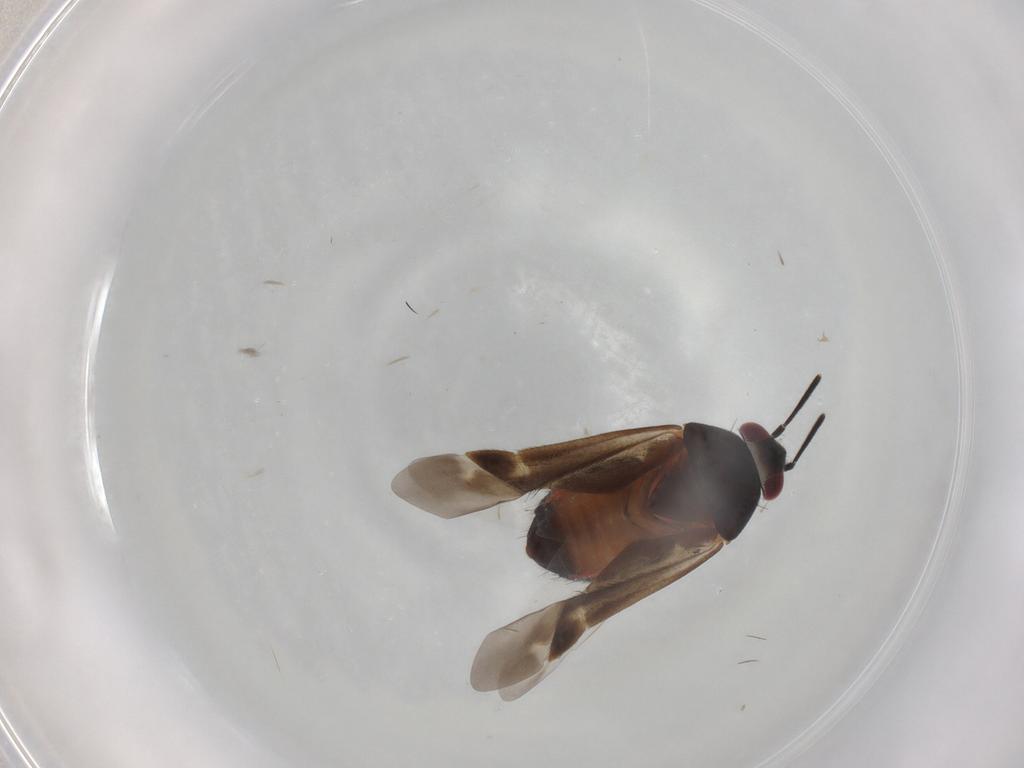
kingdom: Animalia
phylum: Arthropoda
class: Insecta
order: Hemiptera
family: Miridae
